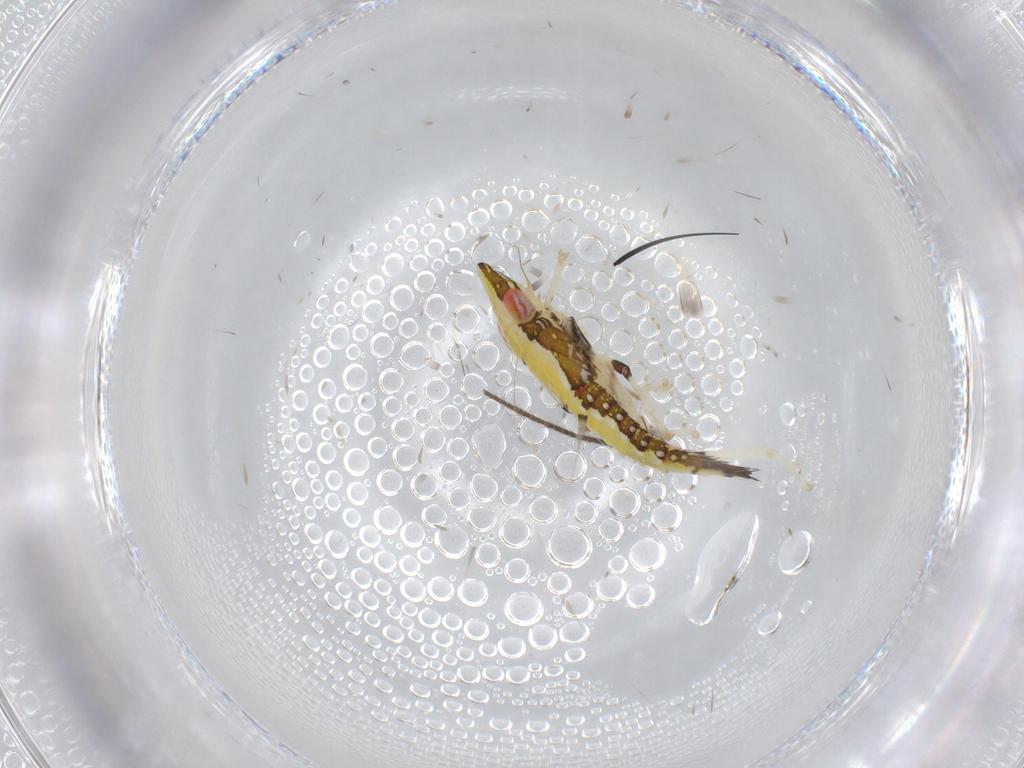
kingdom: Animalia
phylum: Arthropoda
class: Insecta
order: Hemiptera
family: Cicadellidae
